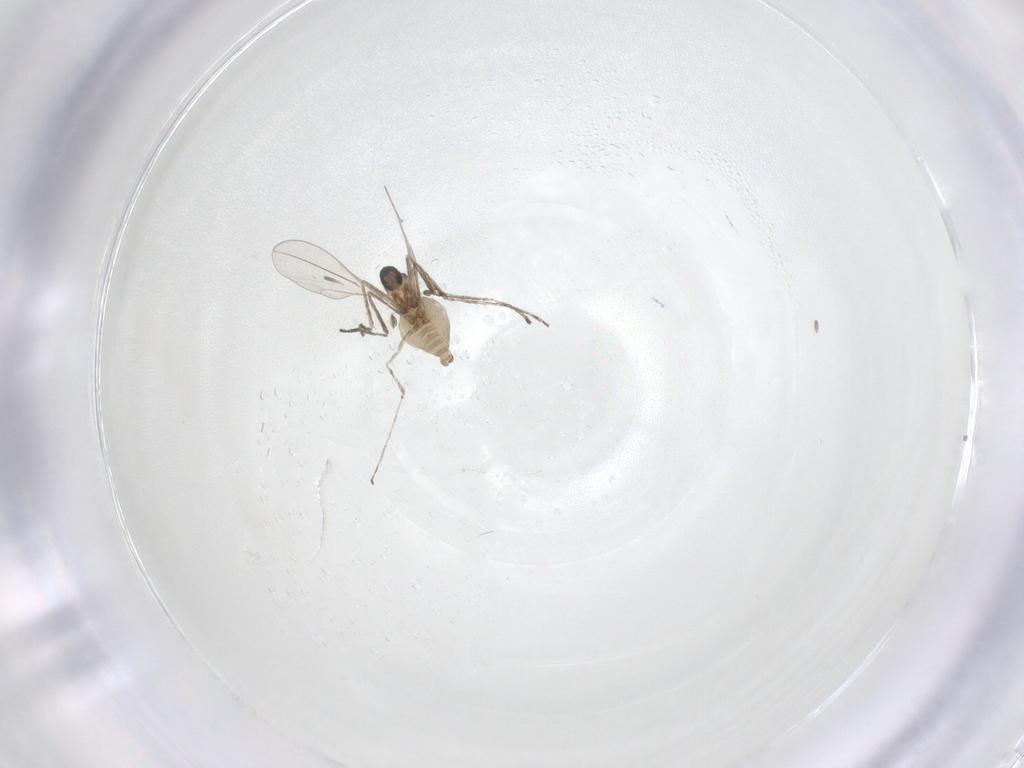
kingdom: Animalia
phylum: Arthropoda
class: Insecta
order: Diptera
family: Cecidomyiidae
